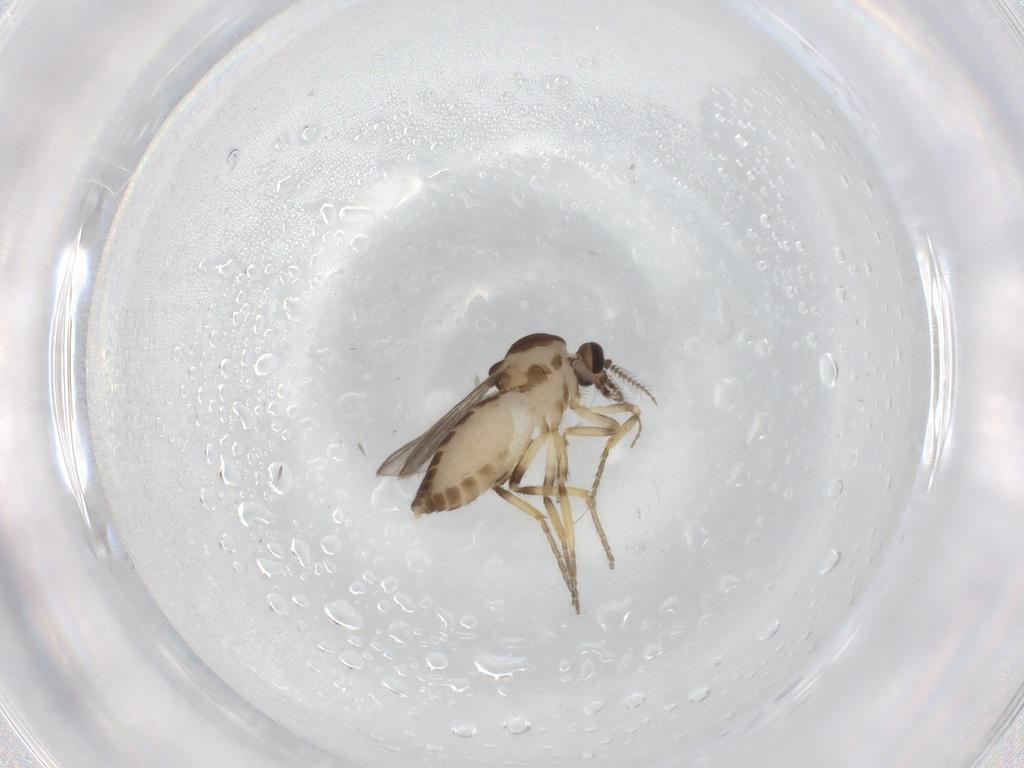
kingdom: Animalia
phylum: Arthropoda
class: Insecta
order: Diptera
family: Ceratopogonidae
